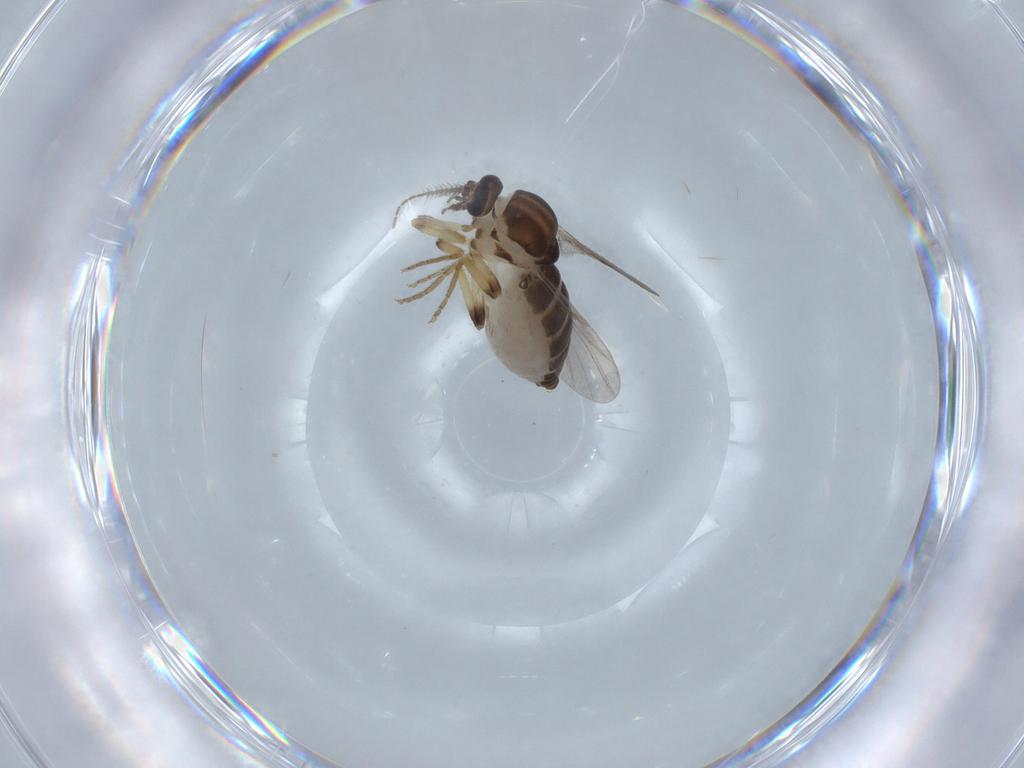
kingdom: Animalia
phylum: Arthropoda
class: Insecta
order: Diptera
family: Ceratopogonidae
